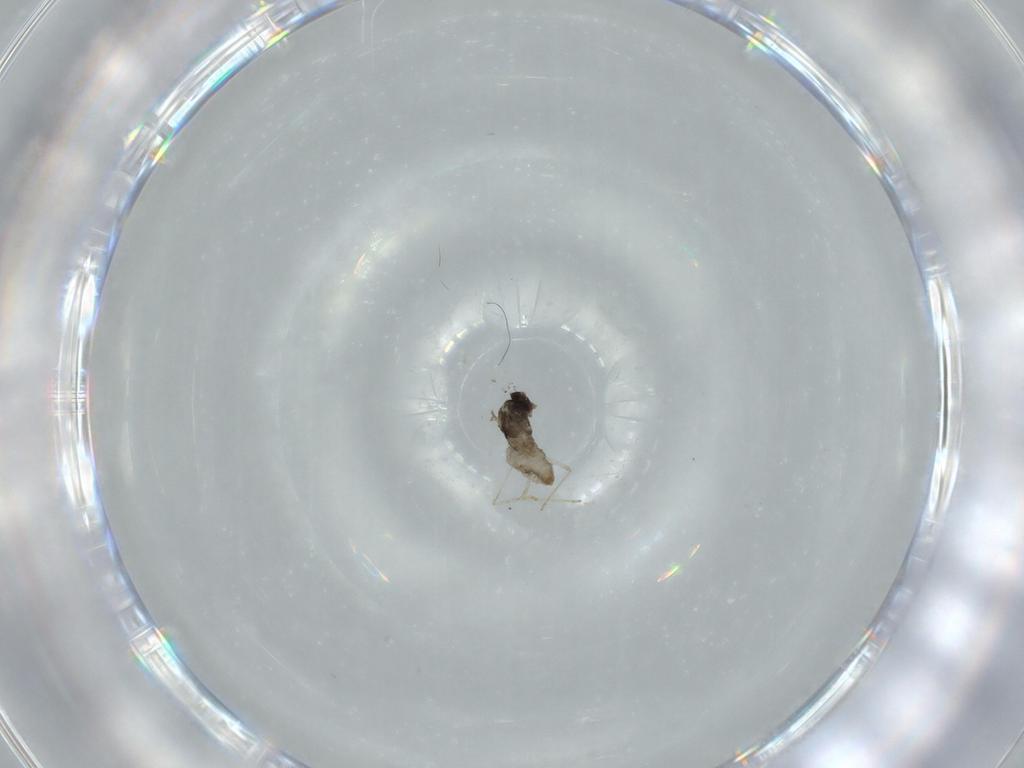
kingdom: Animalia
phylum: Arthropoda
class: Insecta
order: Diptera
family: Cecidomyiidae
